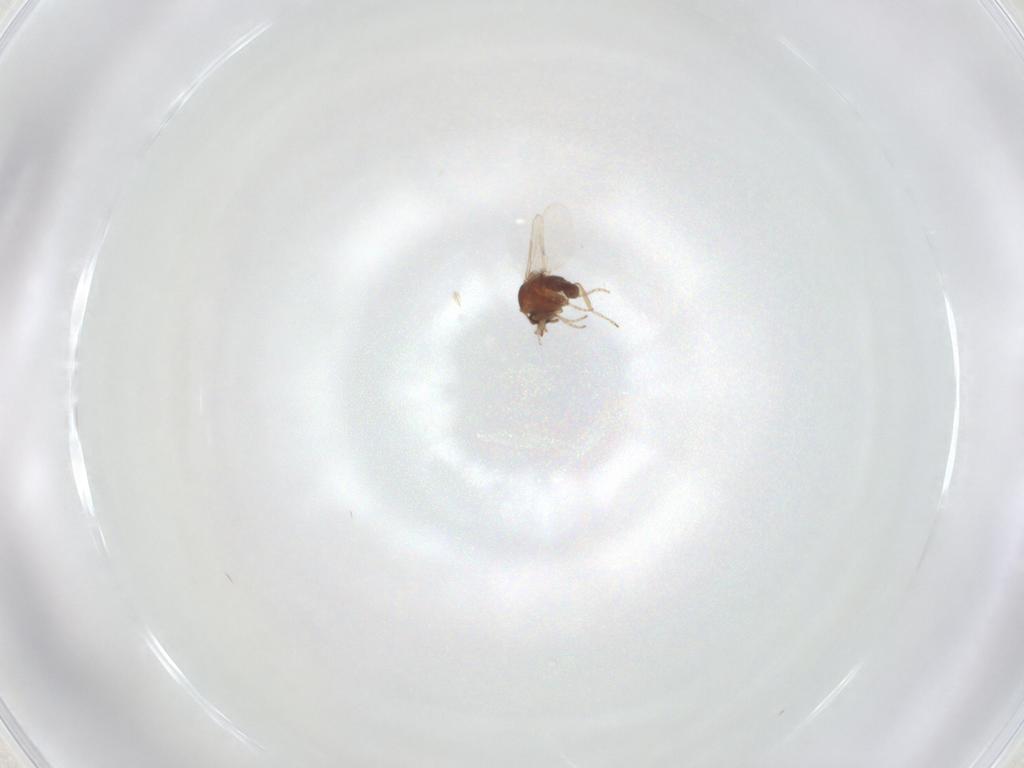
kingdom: Animalia
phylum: Arthropoda
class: Insecta
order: Diptera
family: Ceratopogonidae
